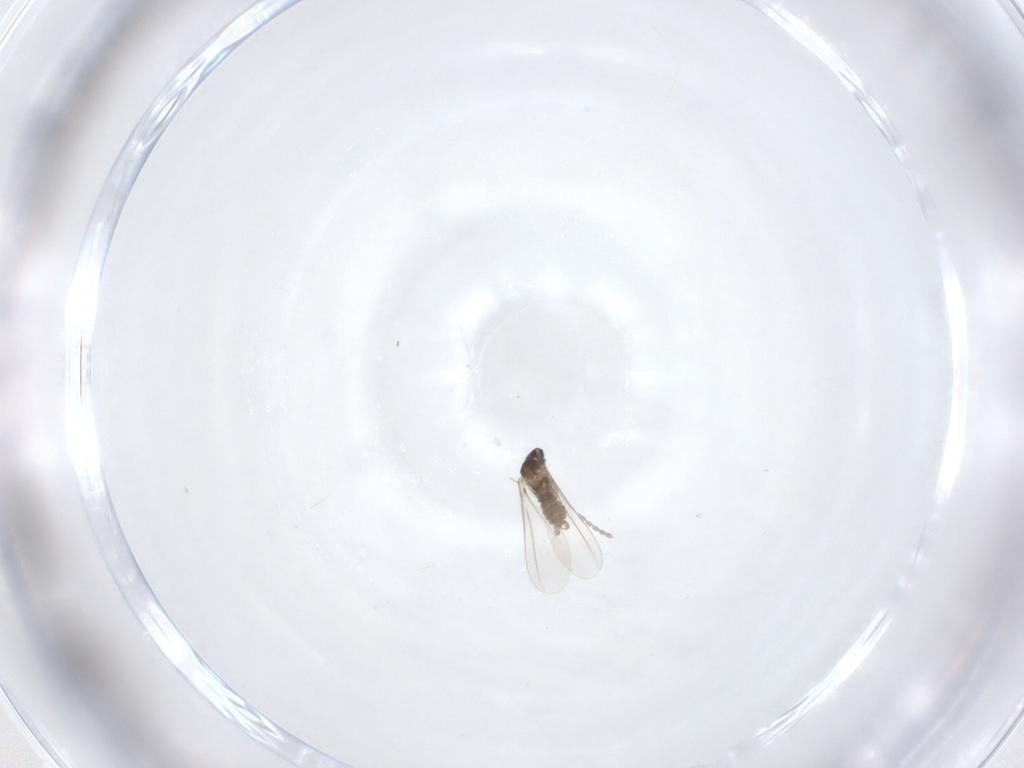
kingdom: Animalia
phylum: Arthropoda
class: Insecta
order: Diptera
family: Cecidomyiidae
